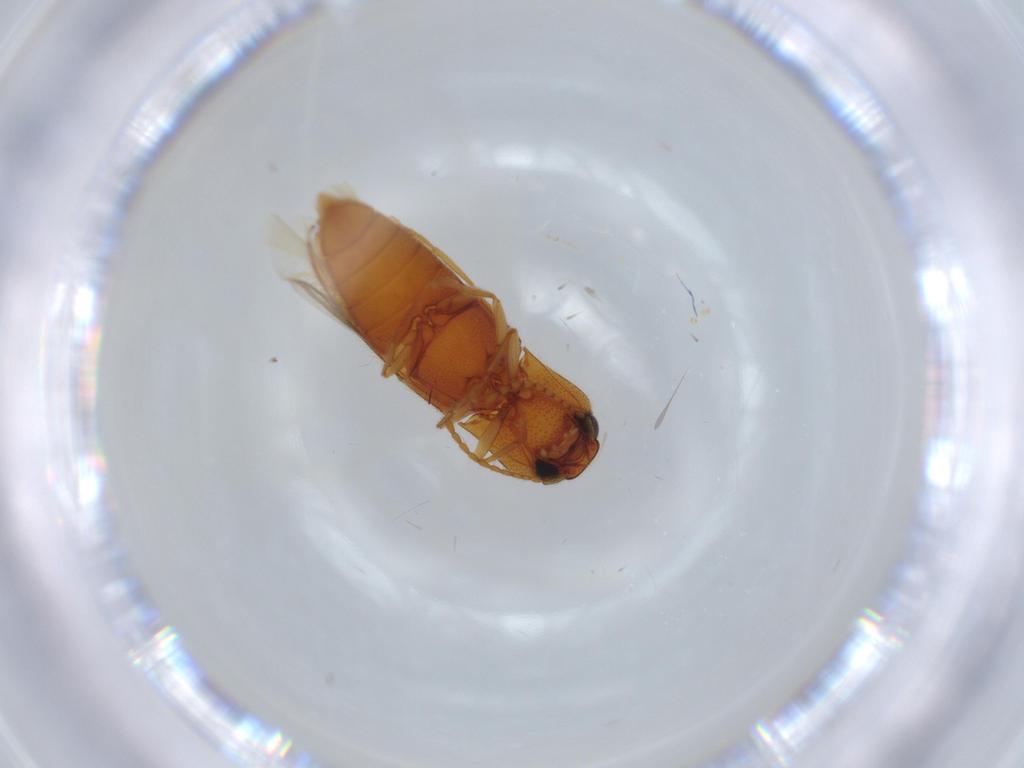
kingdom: Animalia
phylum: Arthropoda
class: Insecta
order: Coleoptera
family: Elateridae
